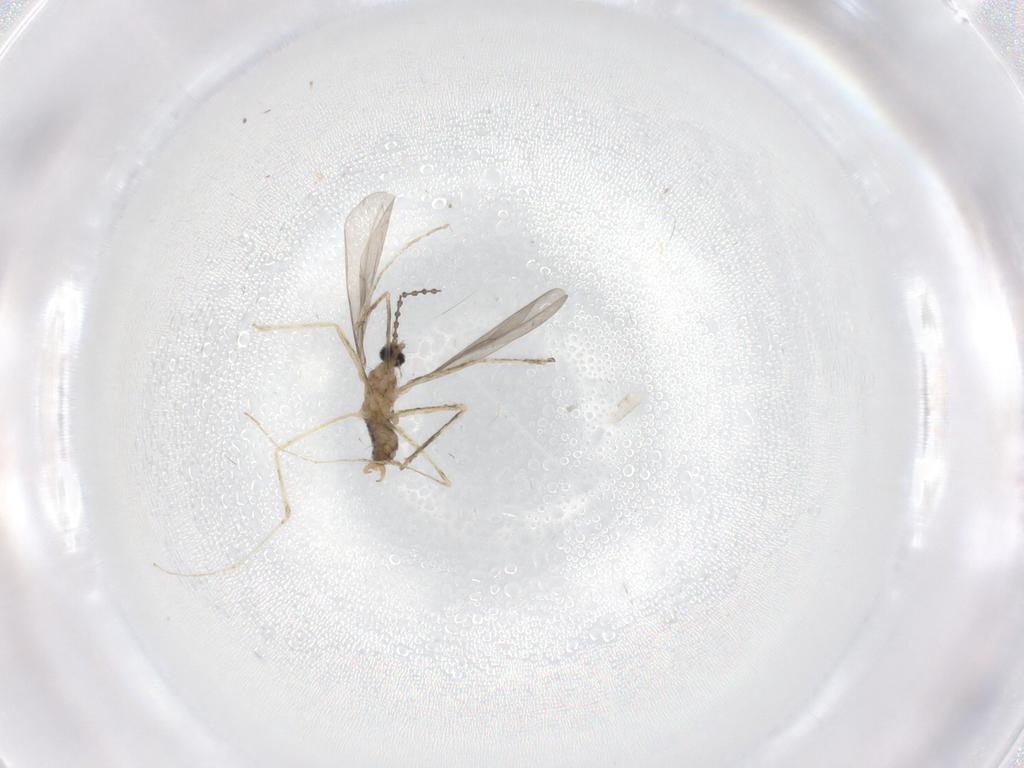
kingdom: Animalia
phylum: Arthropoda
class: Insecta
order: Diptera
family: Cecidomyiidae
